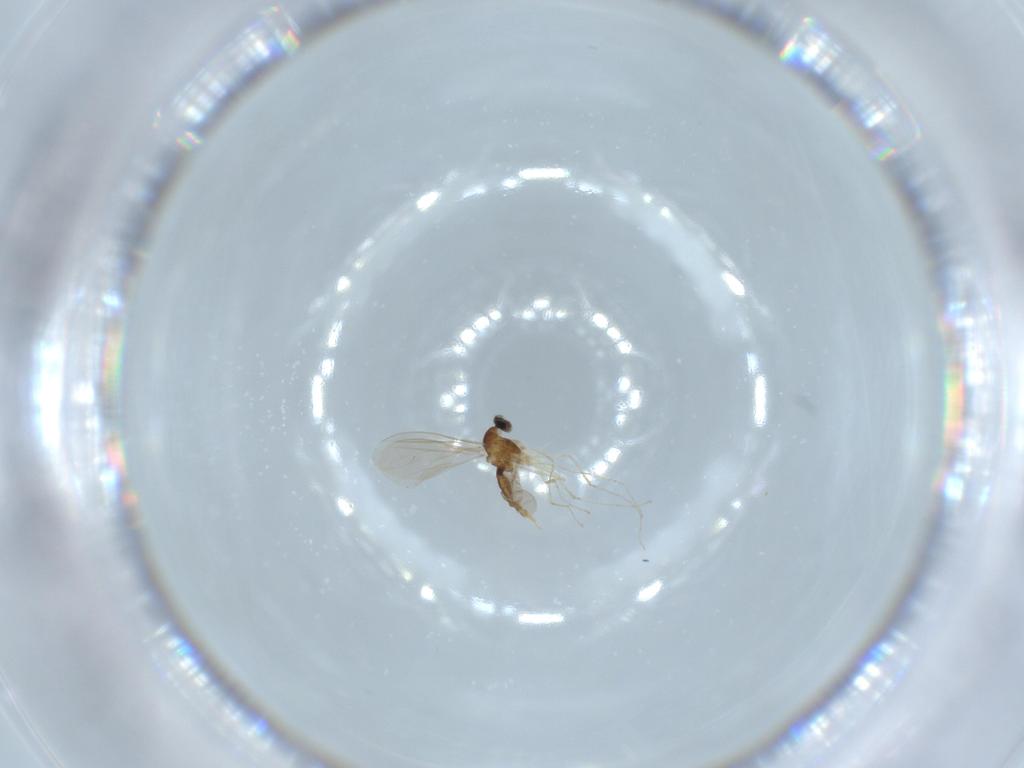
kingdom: Animalia
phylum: Arthropoda
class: Insecta
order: Diptera
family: Cecidomyiidae
